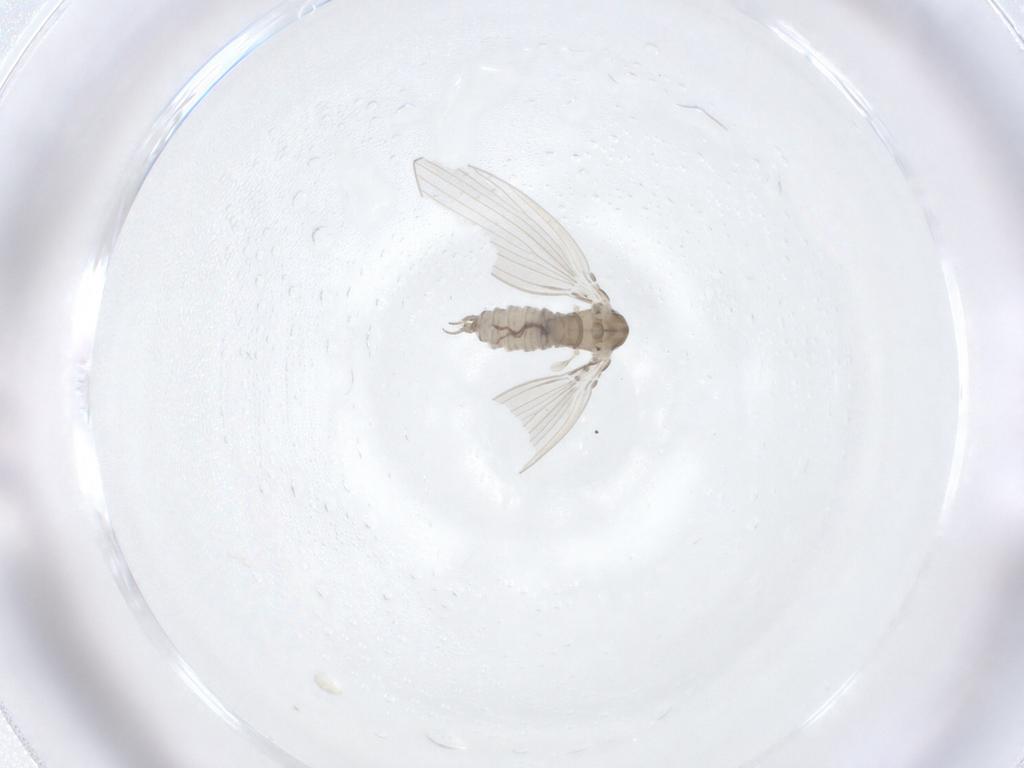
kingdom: Animalia
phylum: Arthropoda
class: Insecta
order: Diptera
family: Psychodidae
